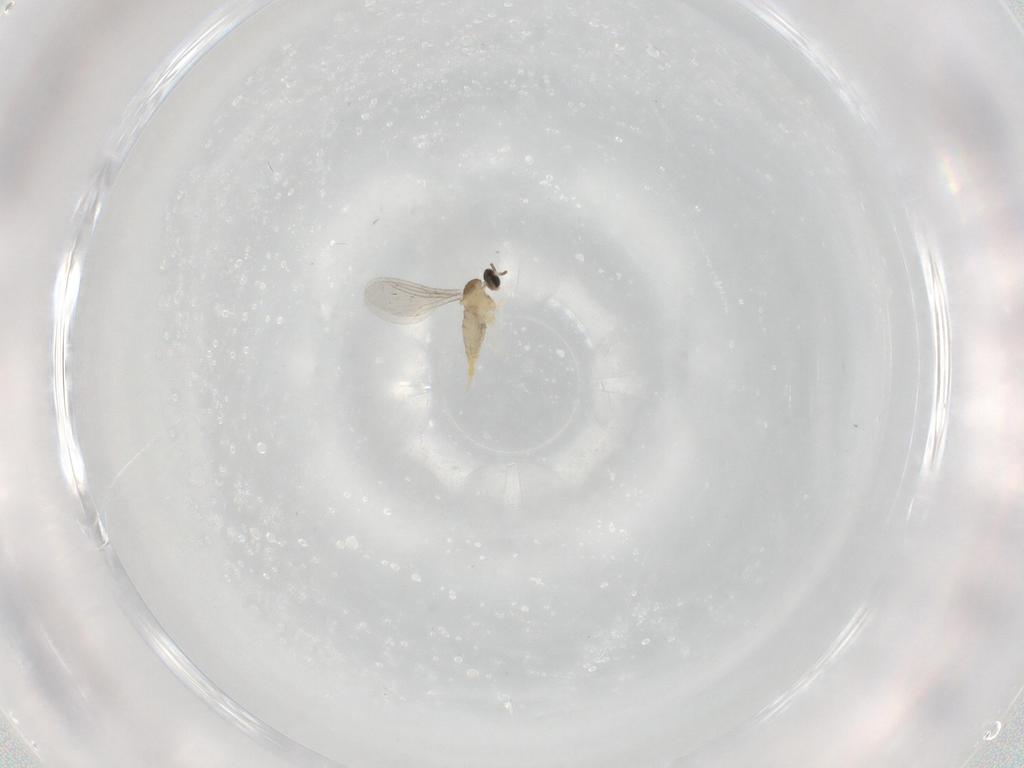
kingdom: Animalia
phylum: Arthropoda
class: Insecta
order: Diptera
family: Cecidomyiidae
